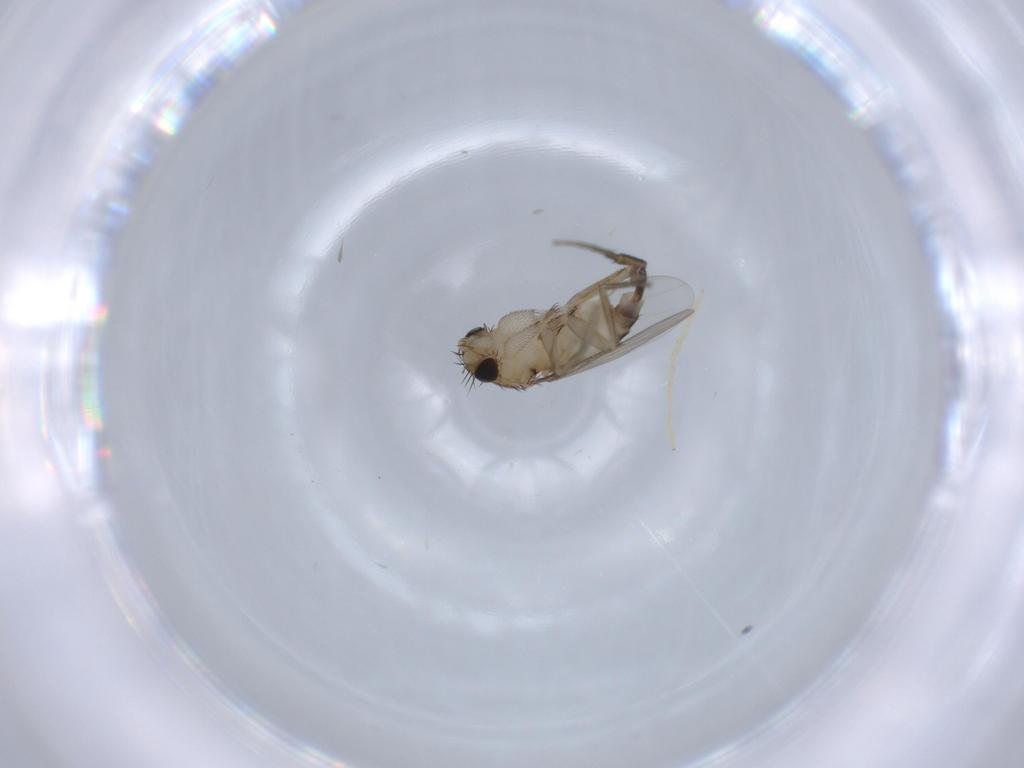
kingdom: Animalia
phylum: Arthropoda
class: Insecta
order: Diptera
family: Phoridae
